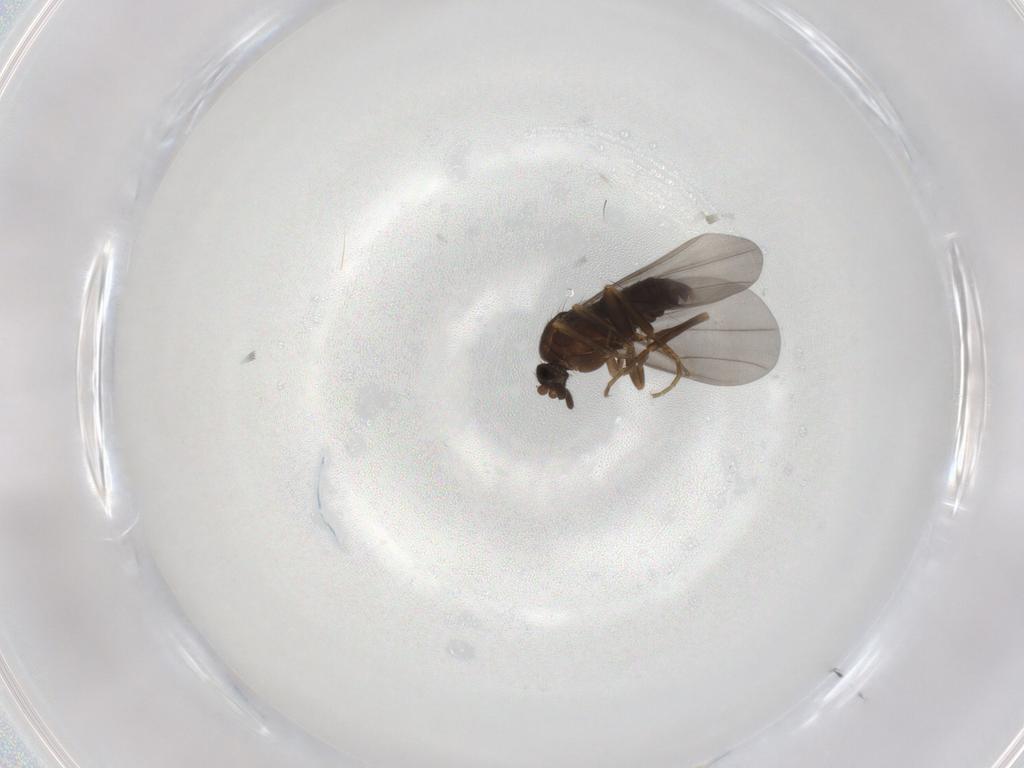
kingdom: Animalia
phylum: Arthropoda
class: Insecta
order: Diptera
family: Phoridae
